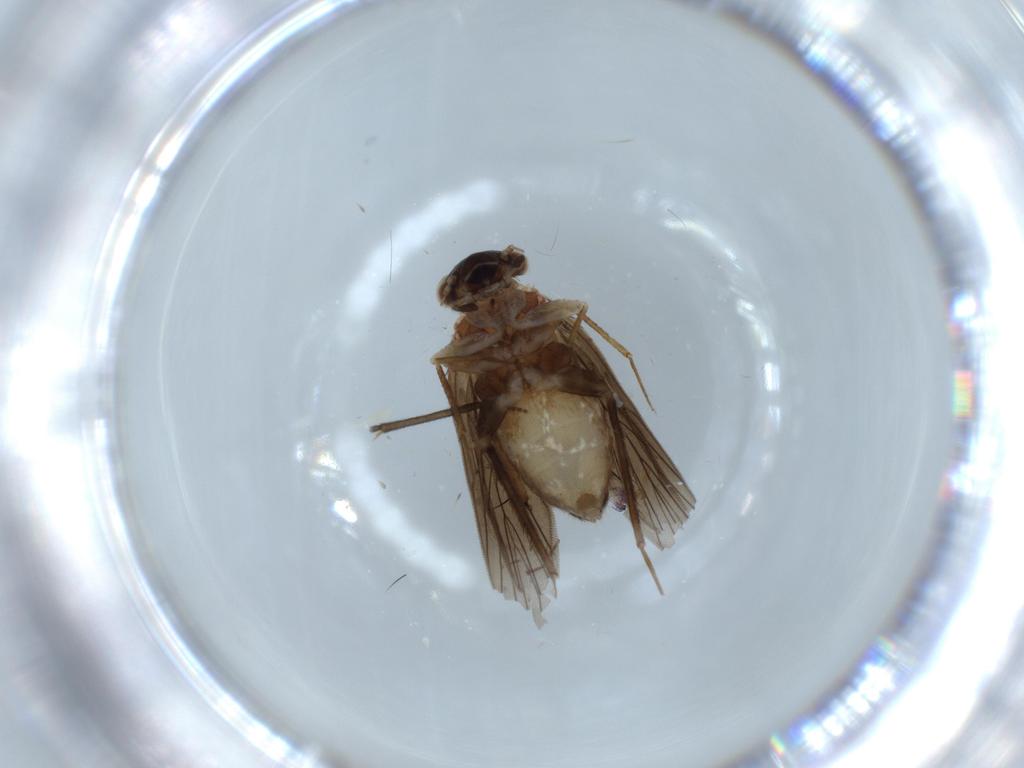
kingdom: Animalia
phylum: Arthropoda
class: Insecta
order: Psocodea
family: Lepidopsocidae
